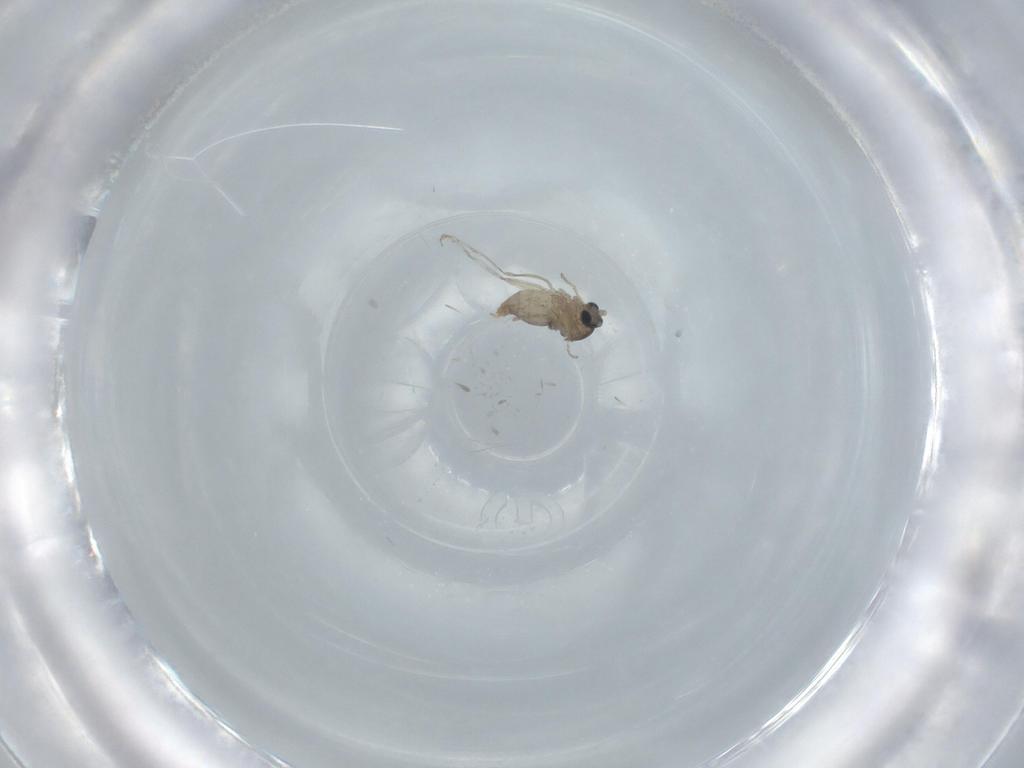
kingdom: Animalia
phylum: Arthropoda
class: Insecta
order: Diptera
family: Cecidomyiidae
